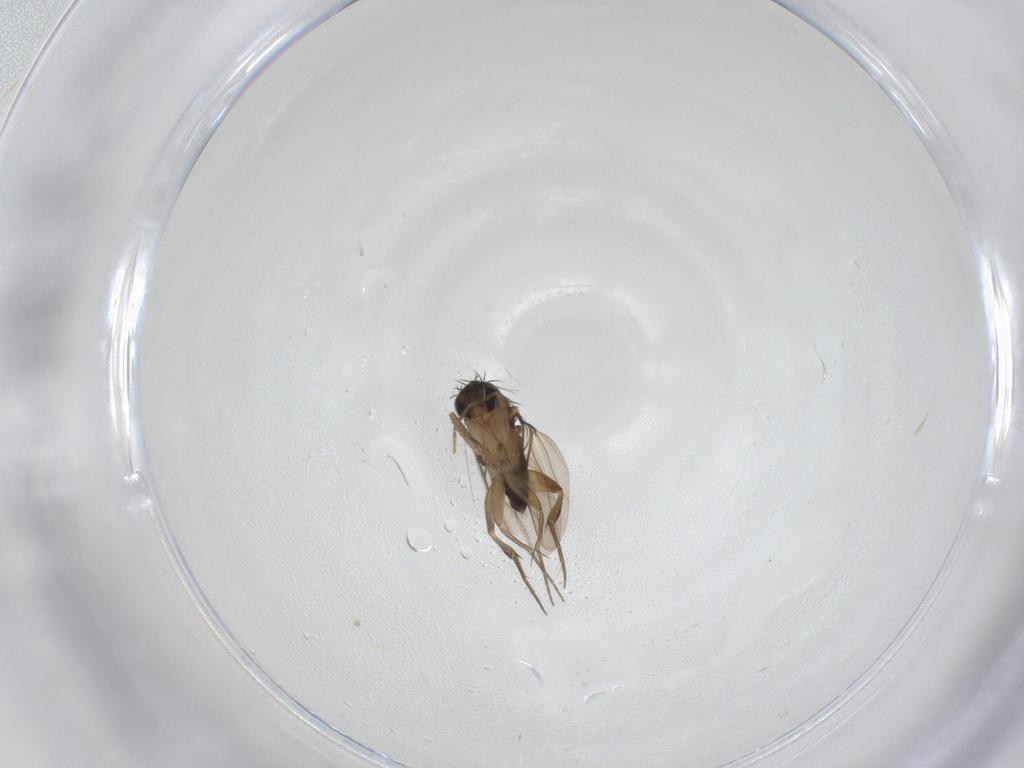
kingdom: Animalia
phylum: Arthropoda
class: Insecta
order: Diptera
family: Phoridae
